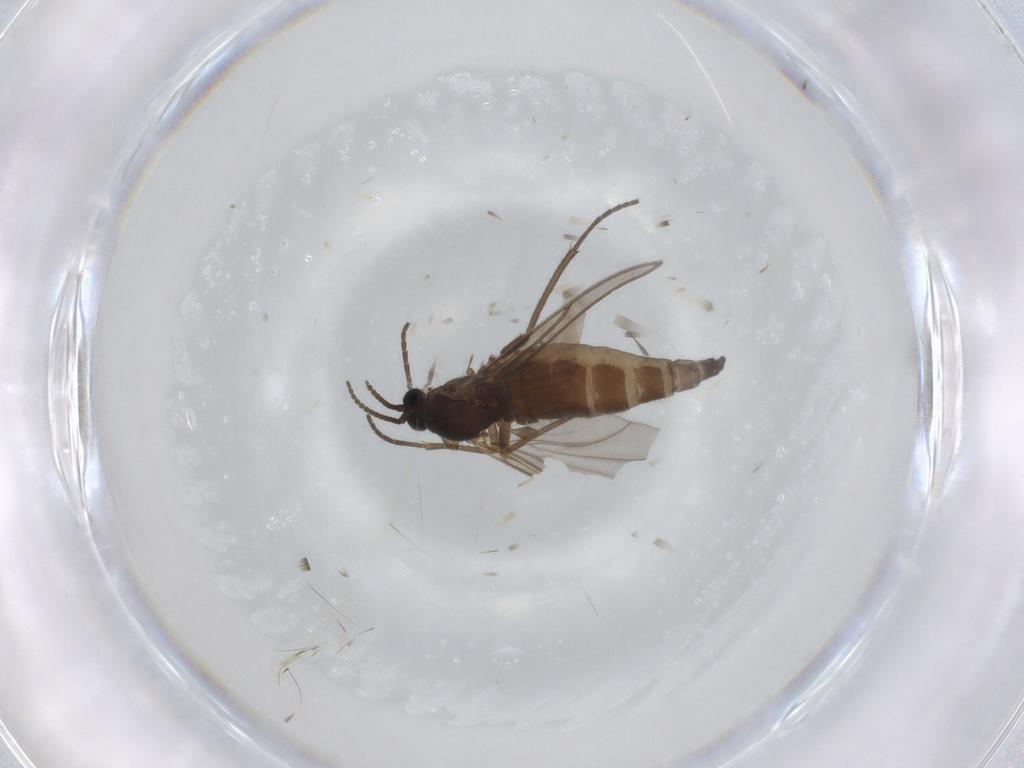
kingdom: Animalia
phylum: Arthropoda
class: Insecta
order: Diptera
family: Sciaridae
